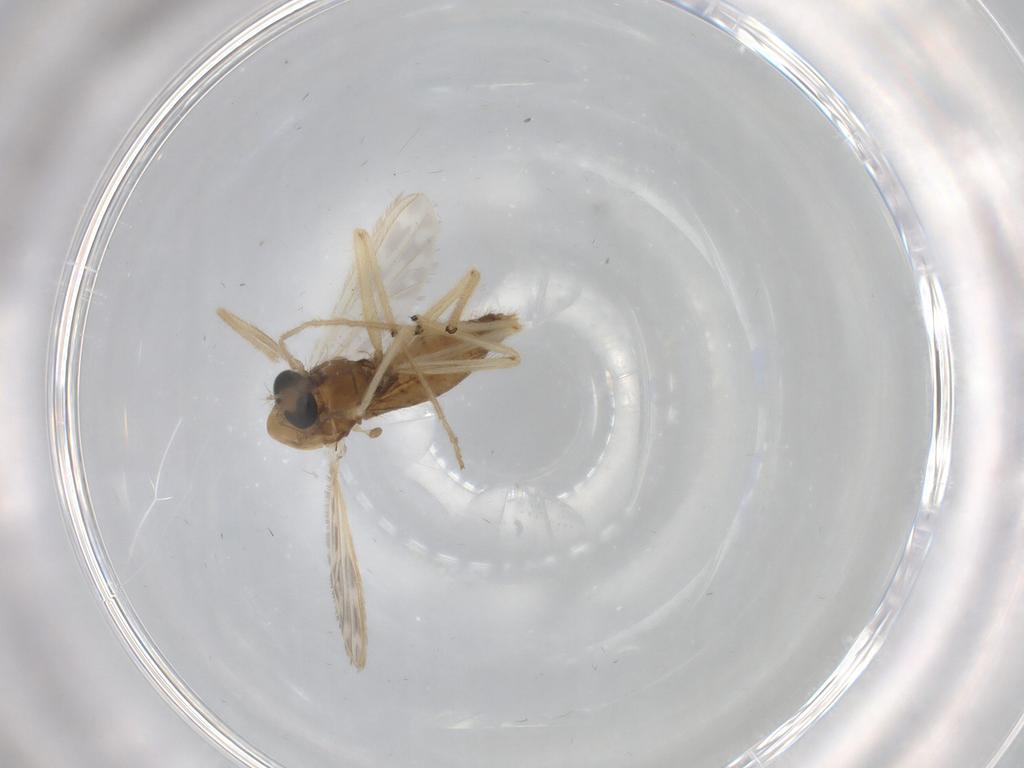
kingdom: Animalia
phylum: Arthropoda
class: Insecta
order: Diptera
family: Chironomidae
